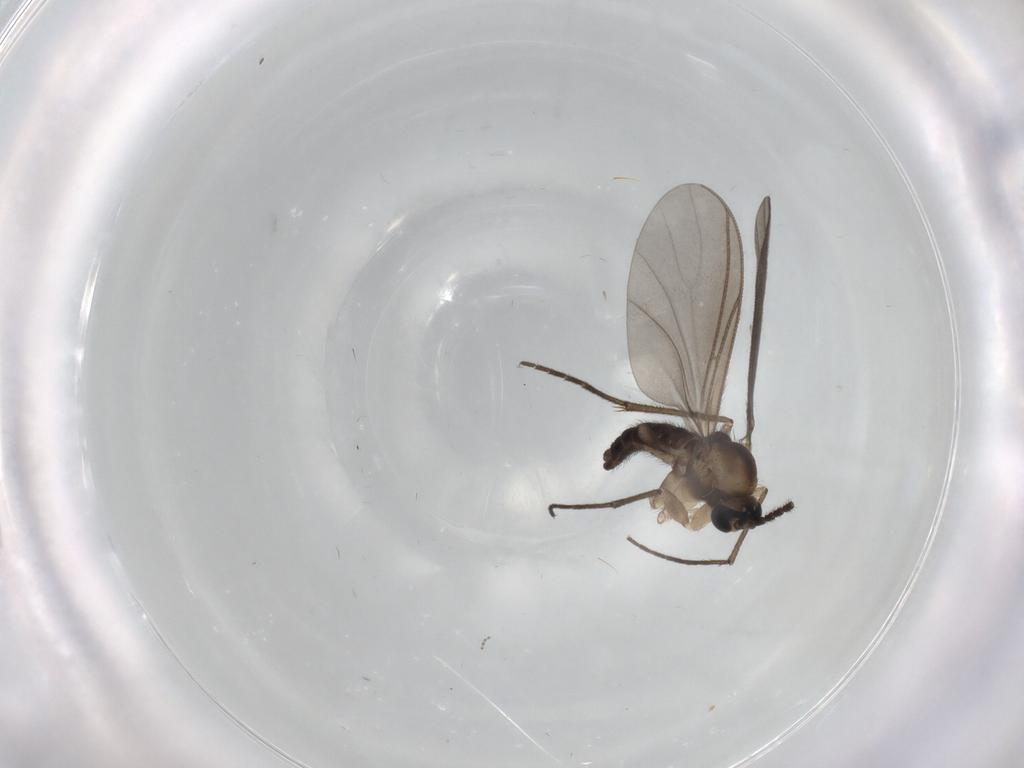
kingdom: Animalia
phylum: Arthropoda
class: Insecta
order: Diptera
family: Sciaridae
